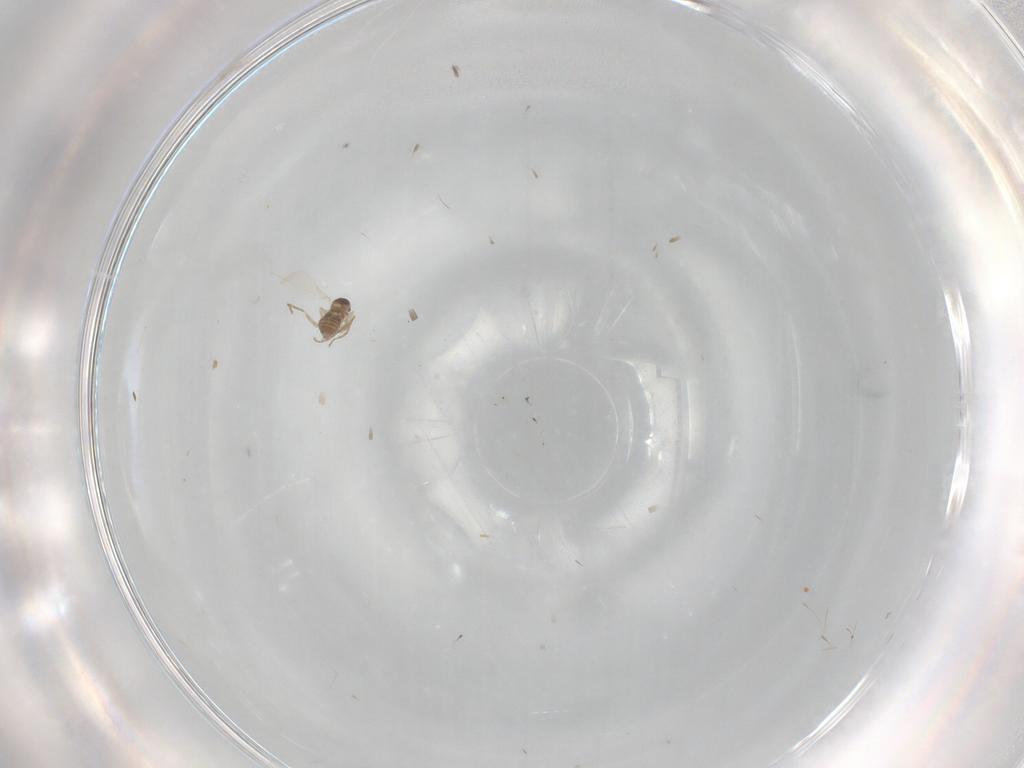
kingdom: Animalia
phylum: Arthropoda
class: Insecta
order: Diptera
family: Cecidomyiidae
